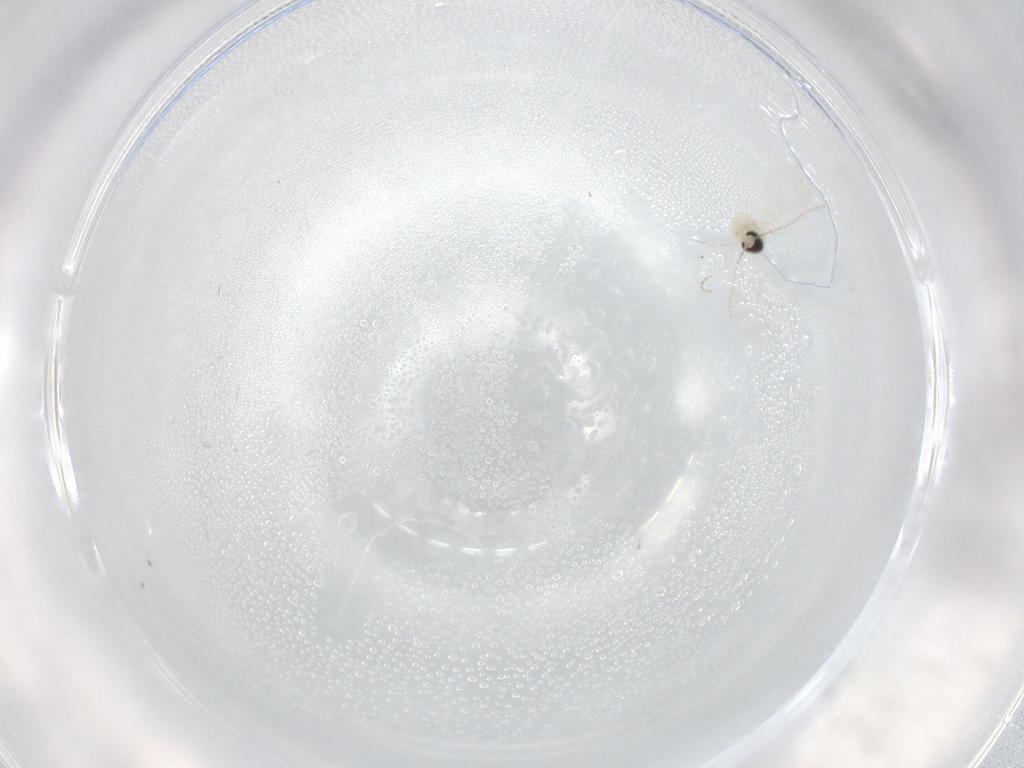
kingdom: Animalia
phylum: Arthropoda
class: Insecta
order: Diptera
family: Cecidomyiidae
